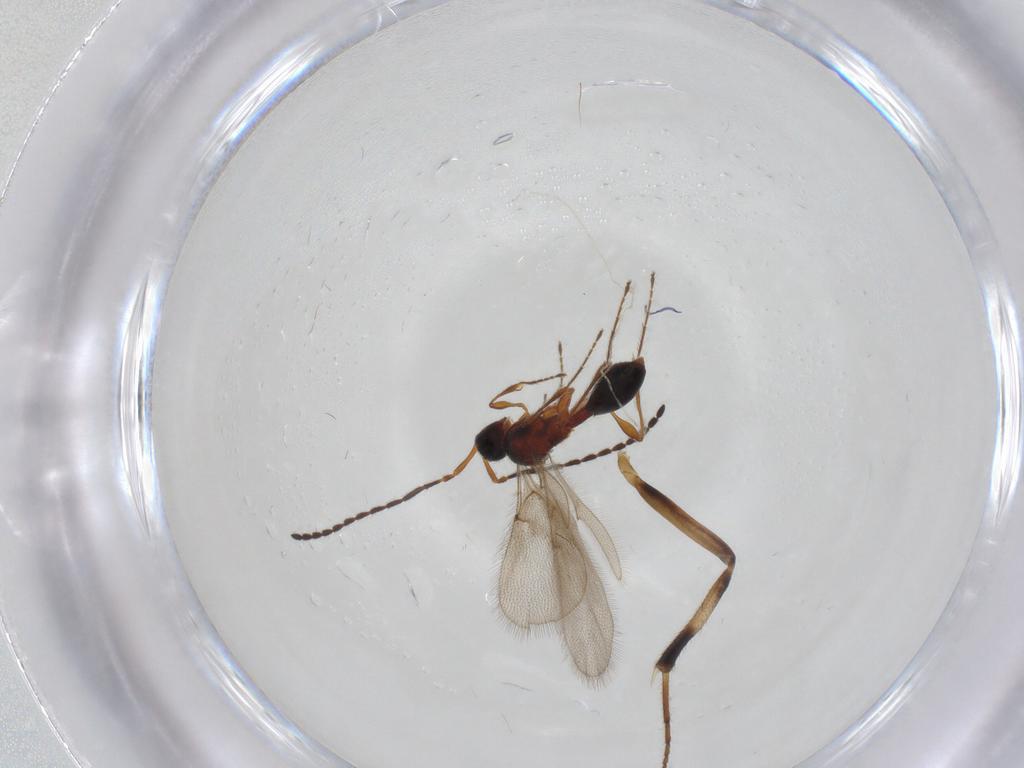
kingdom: Animalia
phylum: Arthropoda
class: Insecta
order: Hymenoptera
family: Ichneumonidae
